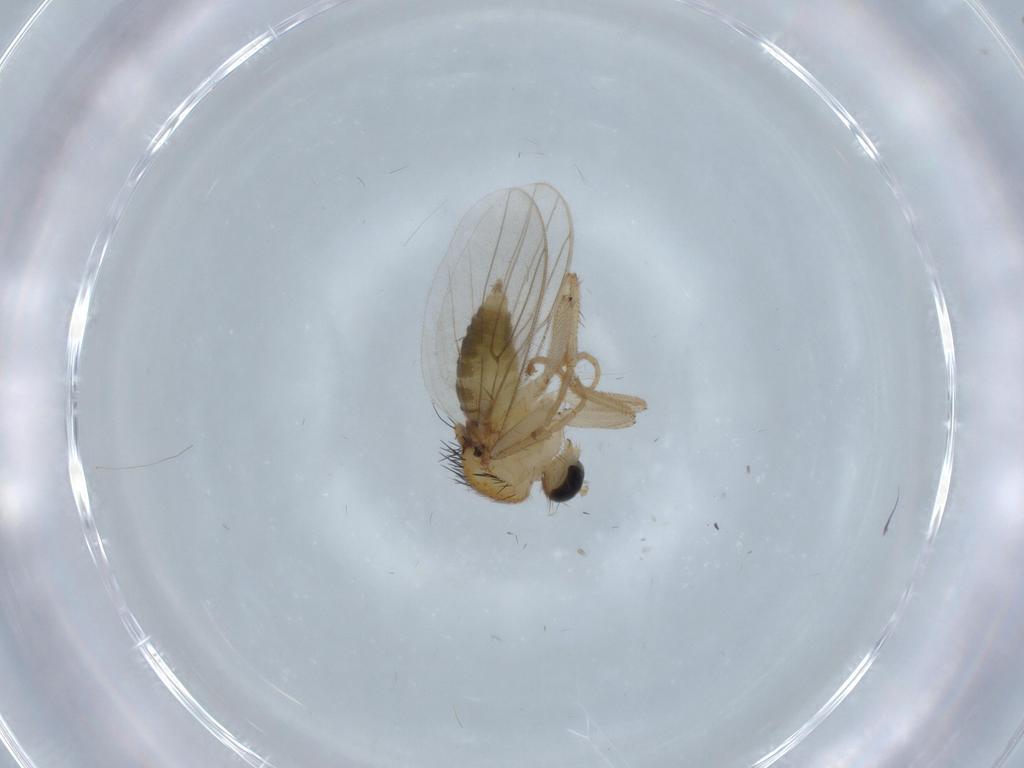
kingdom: Animalia
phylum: Arthropoda
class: Insecta
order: Diptera
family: Hybotidae
